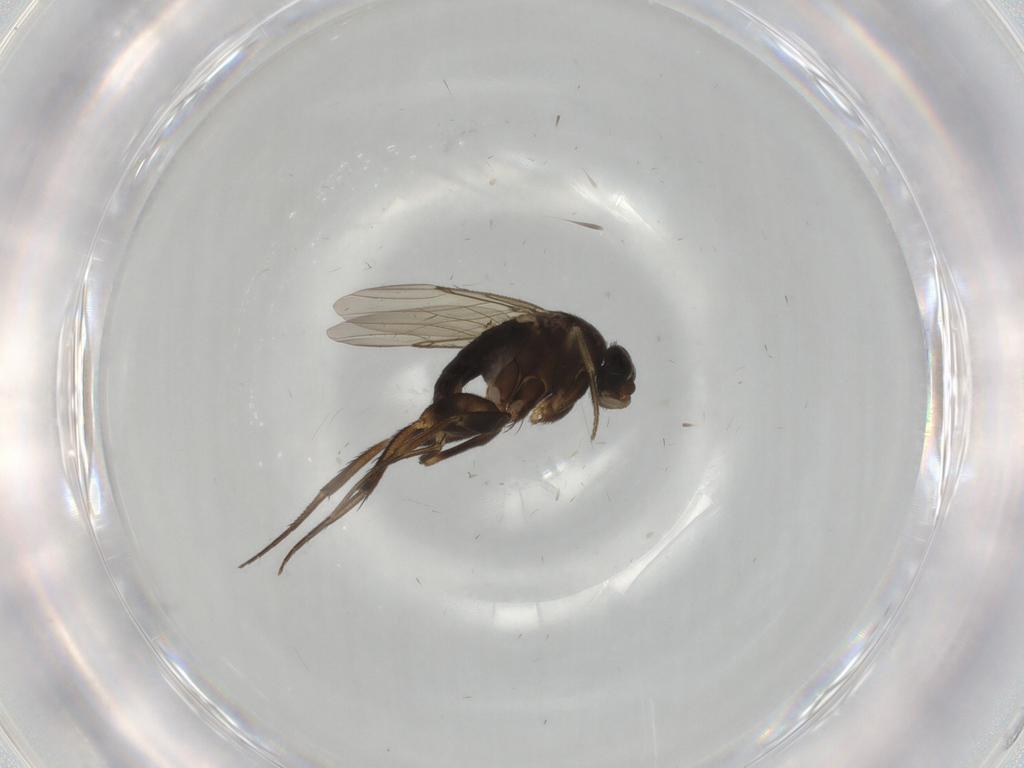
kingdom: Animalia
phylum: Arthropoda
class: Insecta
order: Diptera
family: Phoridae
